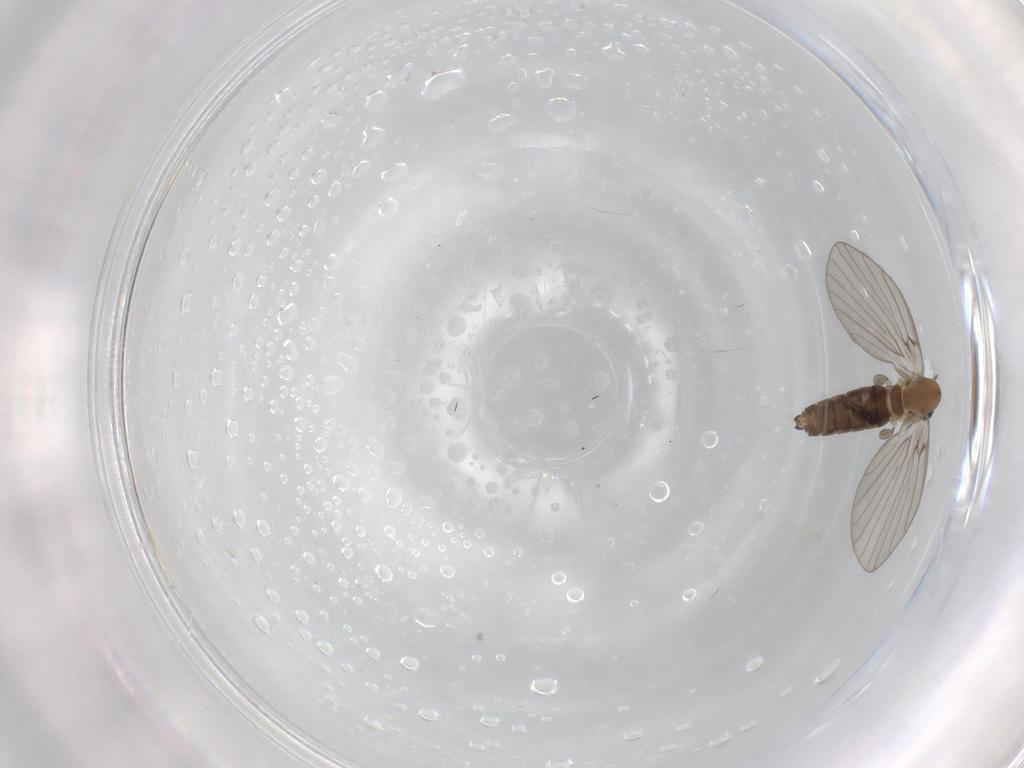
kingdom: Animalia
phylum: Arthropoda
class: Insecta
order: Diptera
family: Psychodidae
